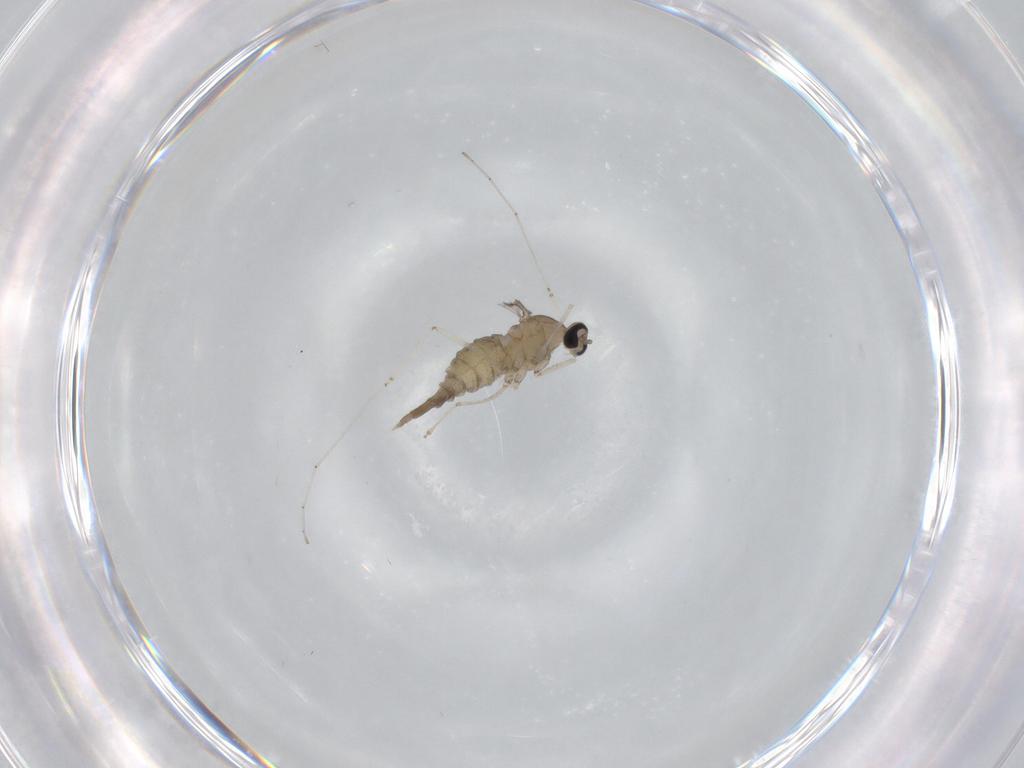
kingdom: Animalia
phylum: Arthropoda
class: Insecta
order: Diptera
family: Cecidomyiidae
